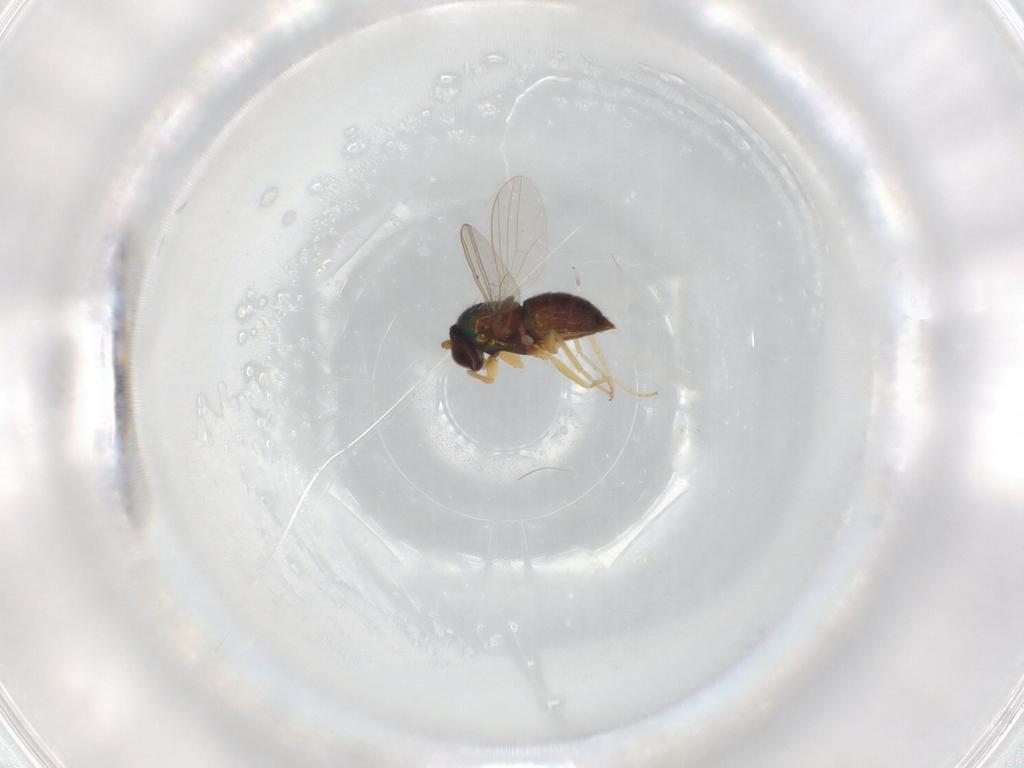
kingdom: Animalia
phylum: Arthropoda
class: Insecta
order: Diptera
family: Dolichopodidae
